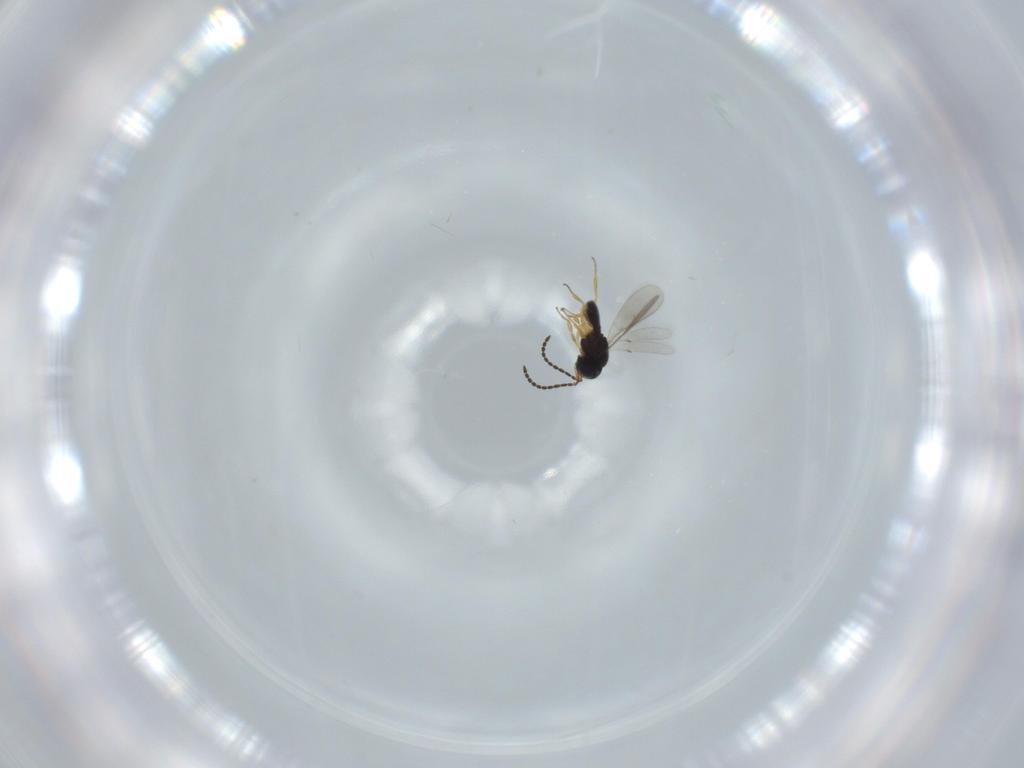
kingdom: Animalia
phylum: Arthropoda
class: Insecta
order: Hymenoptera
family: Scelionidae
